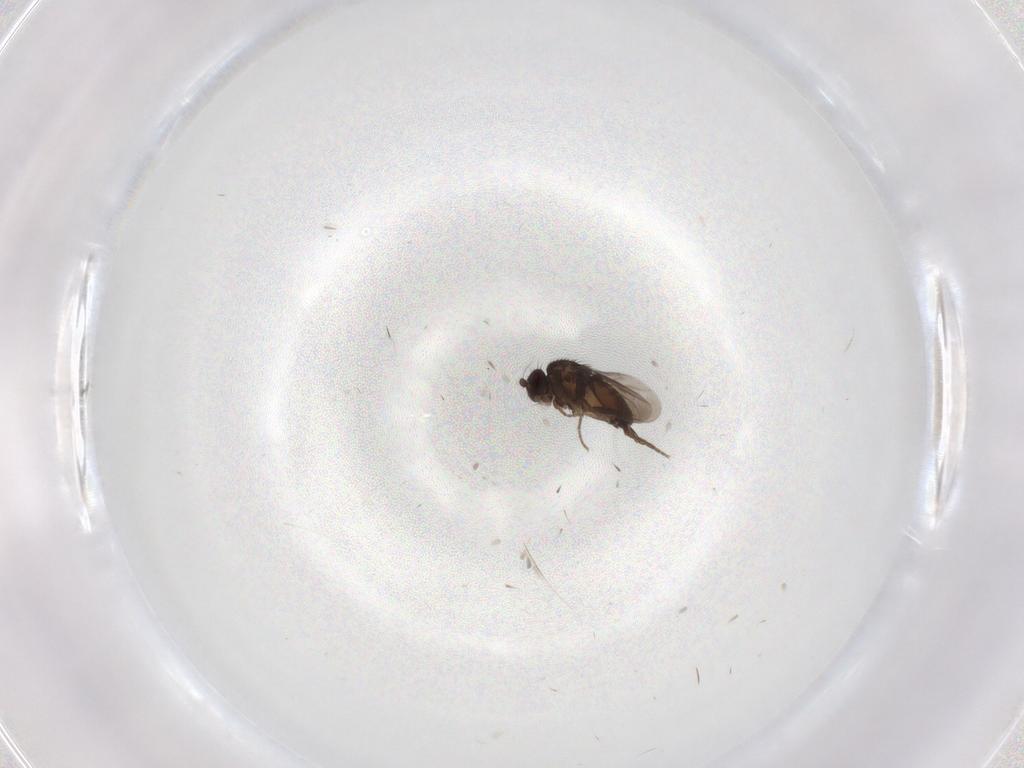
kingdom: Animalia
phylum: Arthropoda
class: Insecta
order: Diptera
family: Sphaeroceridae
